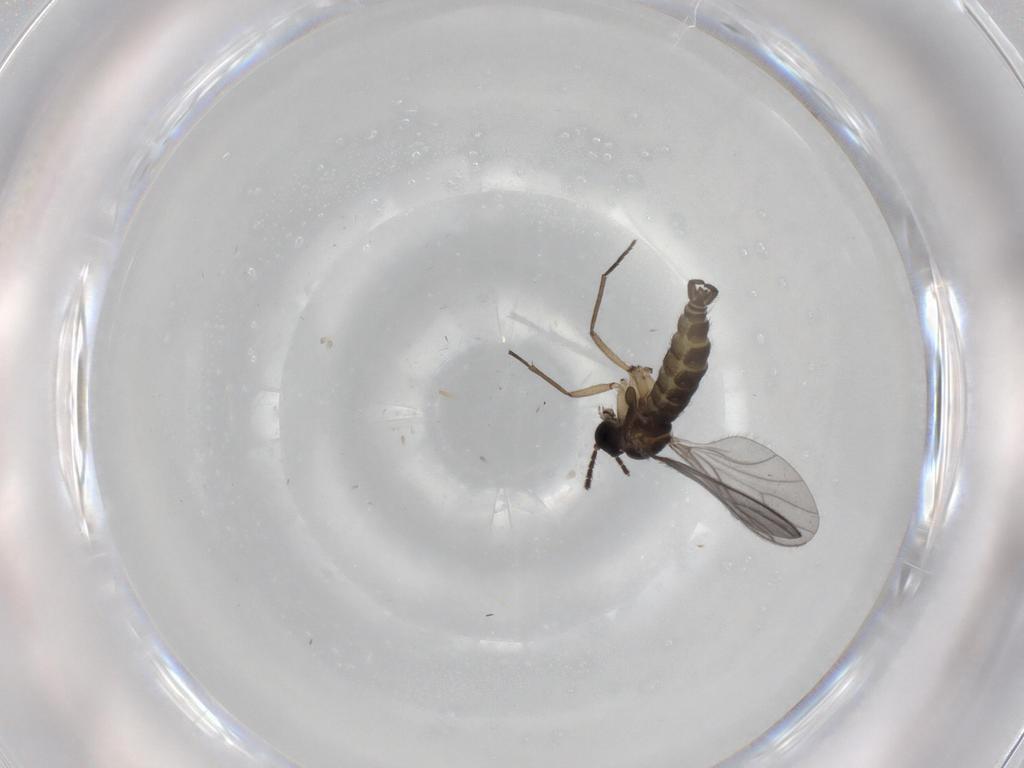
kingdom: Animalia
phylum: Arthropoda
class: Insecta
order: Diptera
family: Sciaridae
